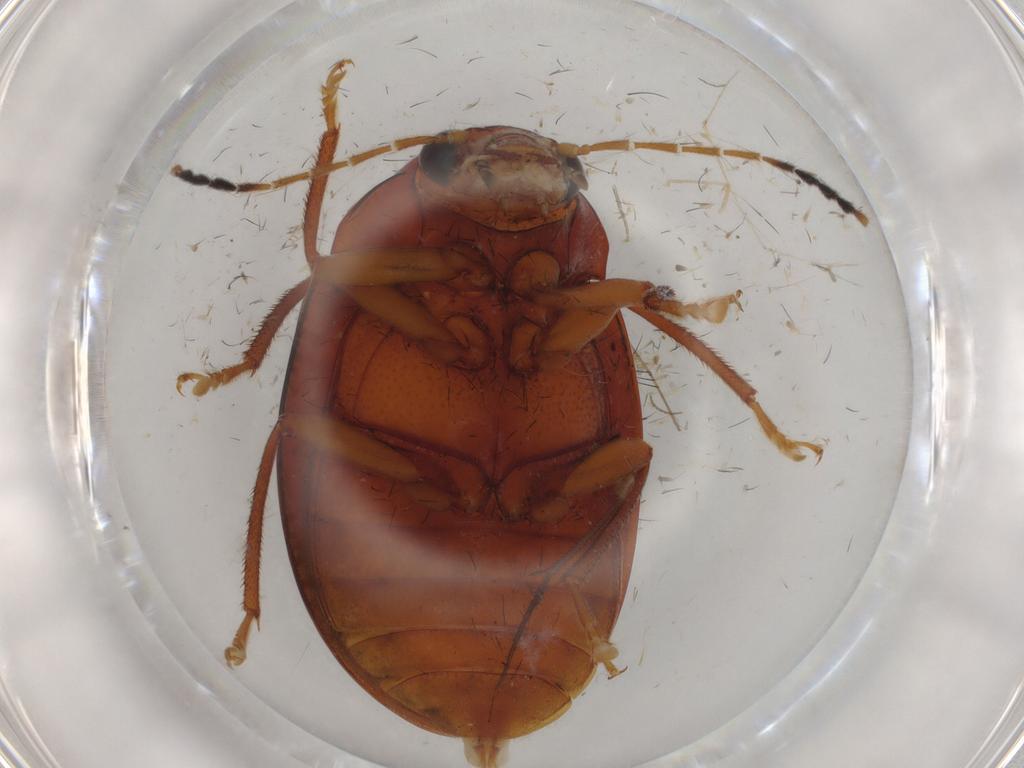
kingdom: Animalia
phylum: Arthropoda
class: Insecta
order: Coleoptera
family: Ptilodactylidae
